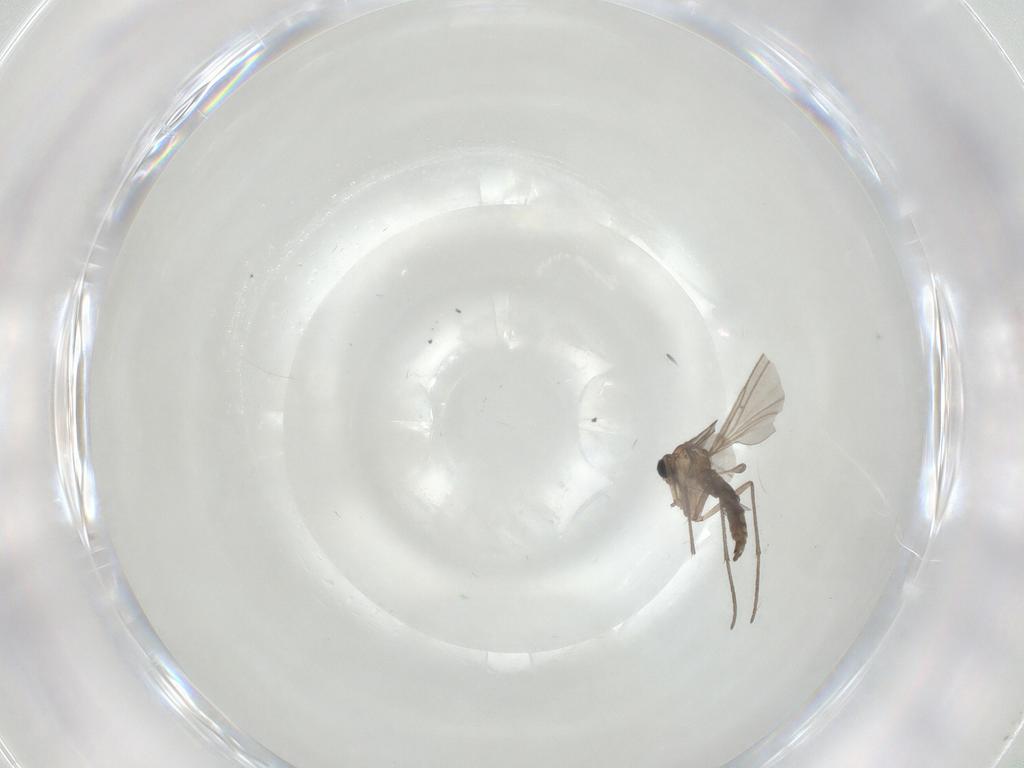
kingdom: Animalia
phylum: Arthropoda
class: Insecta
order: Diptera
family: Sciaridae
